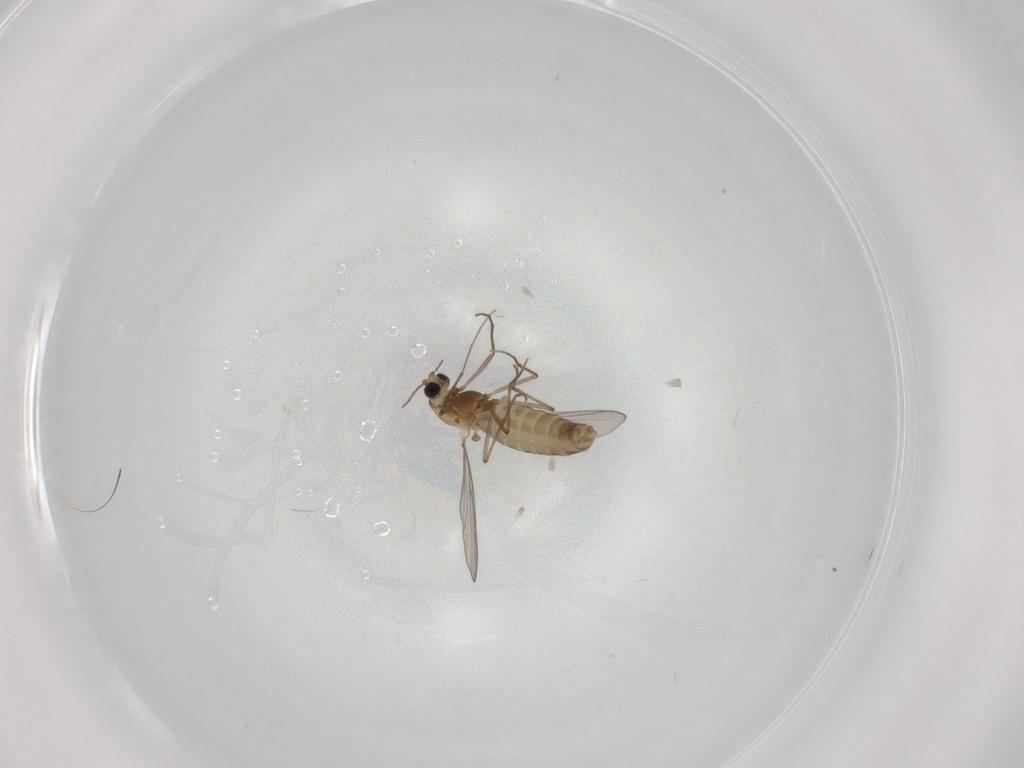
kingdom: Animalia
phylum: Arthropoda
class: Insecta
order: Diptera
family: Chironomidae
